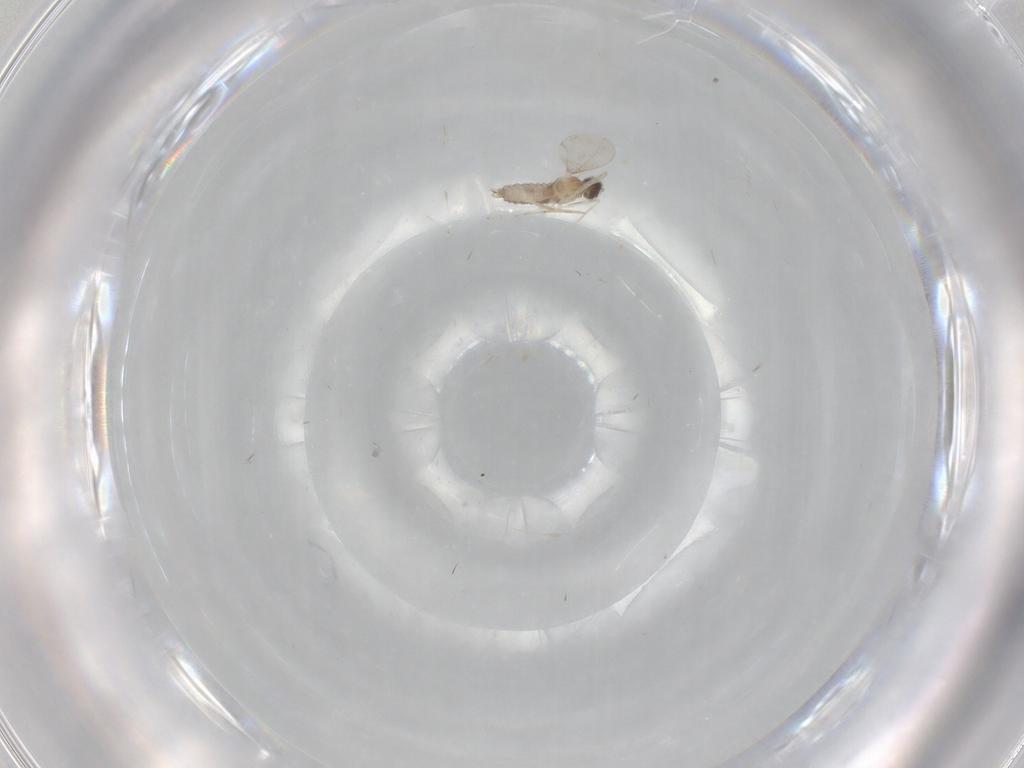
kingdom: Animalia
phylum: Arthropoda
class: Insecta
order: Diptera
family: Cecidomyiidae
